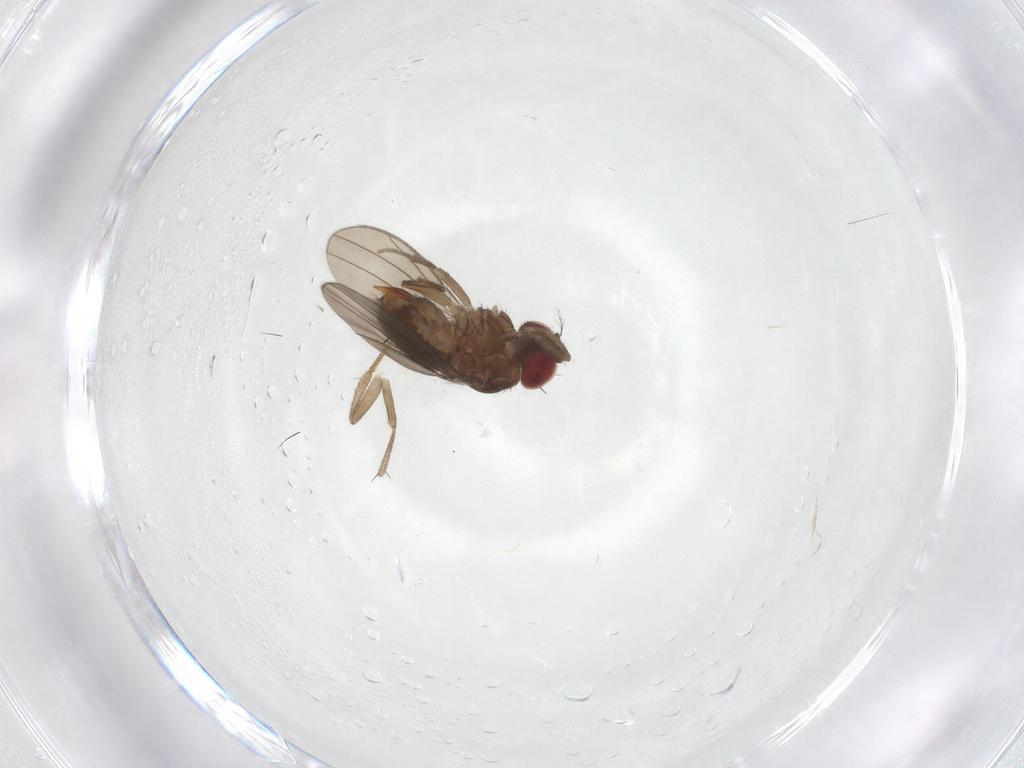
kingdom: Animalia
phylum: Arthropoda
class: Insecta
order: Diptera
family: Drosophilidae
